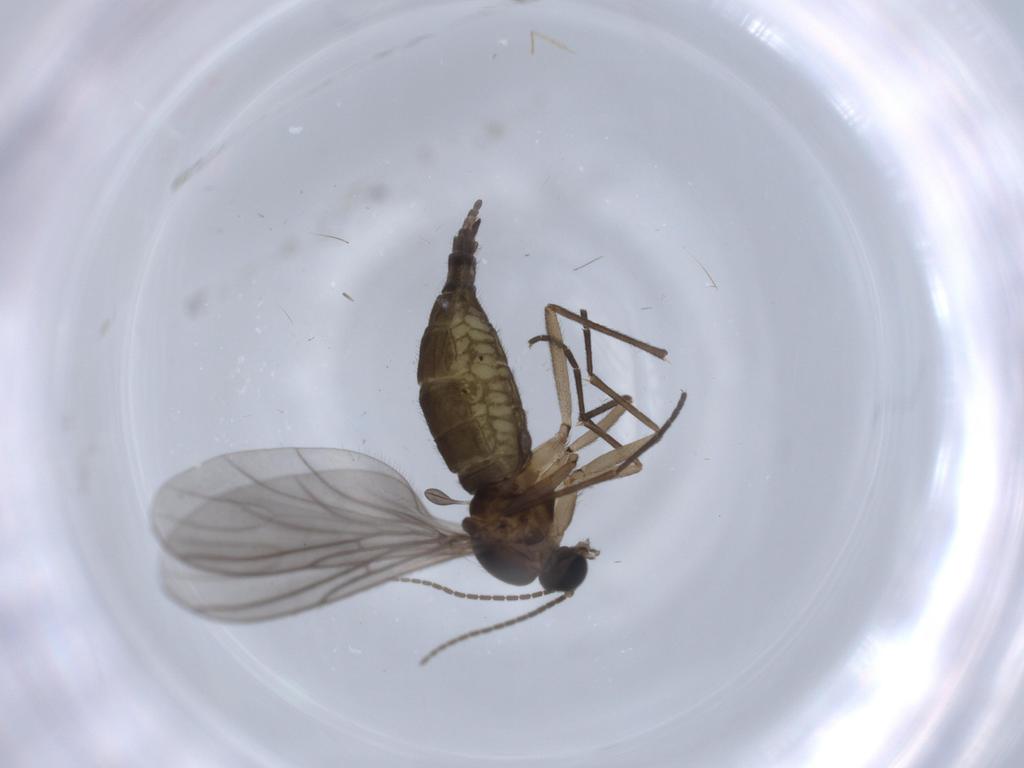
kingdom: Animalia
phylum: Arthropoda
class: Insecta
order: Diptera
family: Sciaridae
